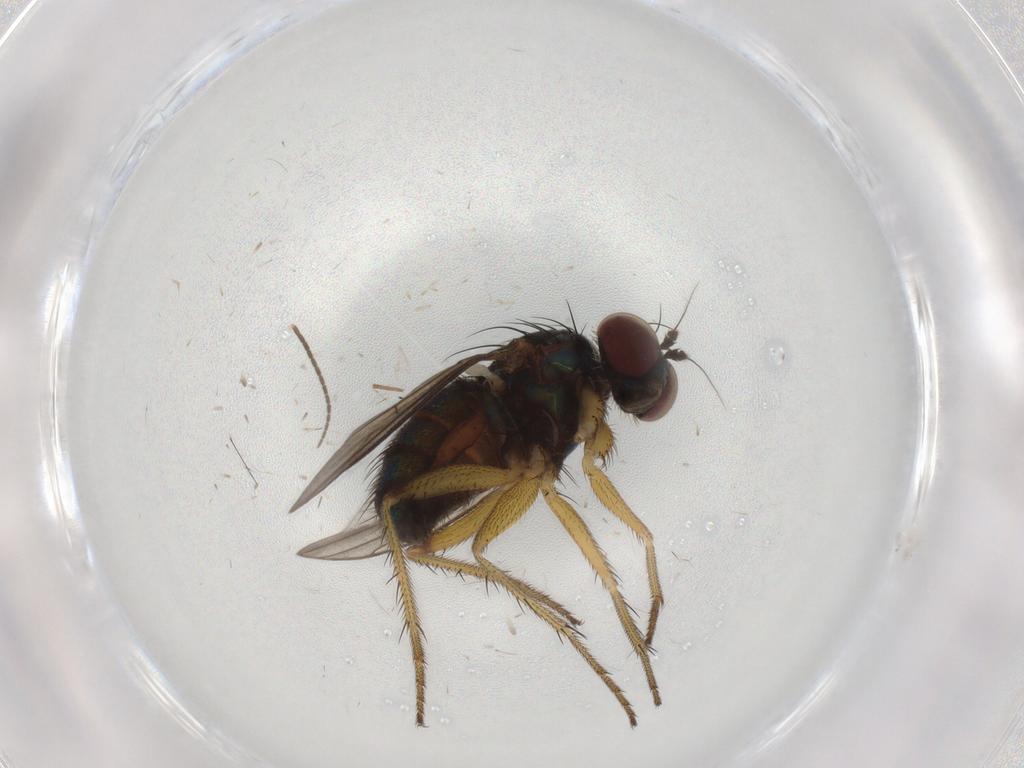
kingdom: Animalia
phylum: Arthropoda
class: Insecta
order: Diptera
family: Dolichopodidae
